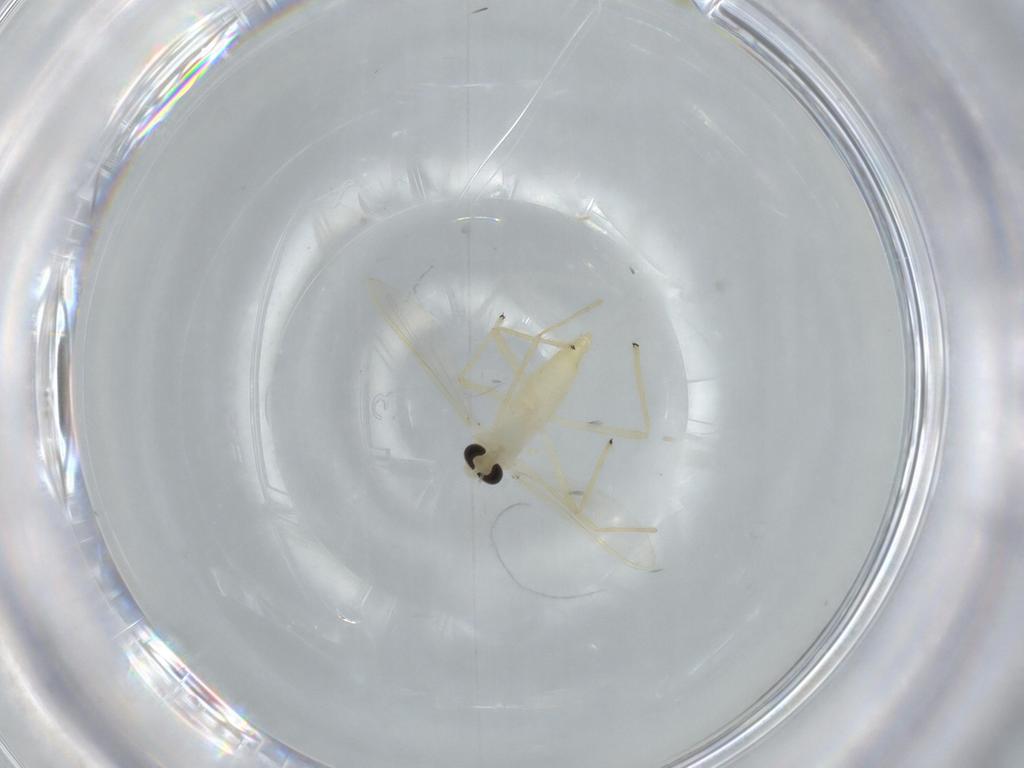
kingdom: Animalia
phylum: Arthropoda
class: Insecta
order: Diptera
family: Chironomidae
